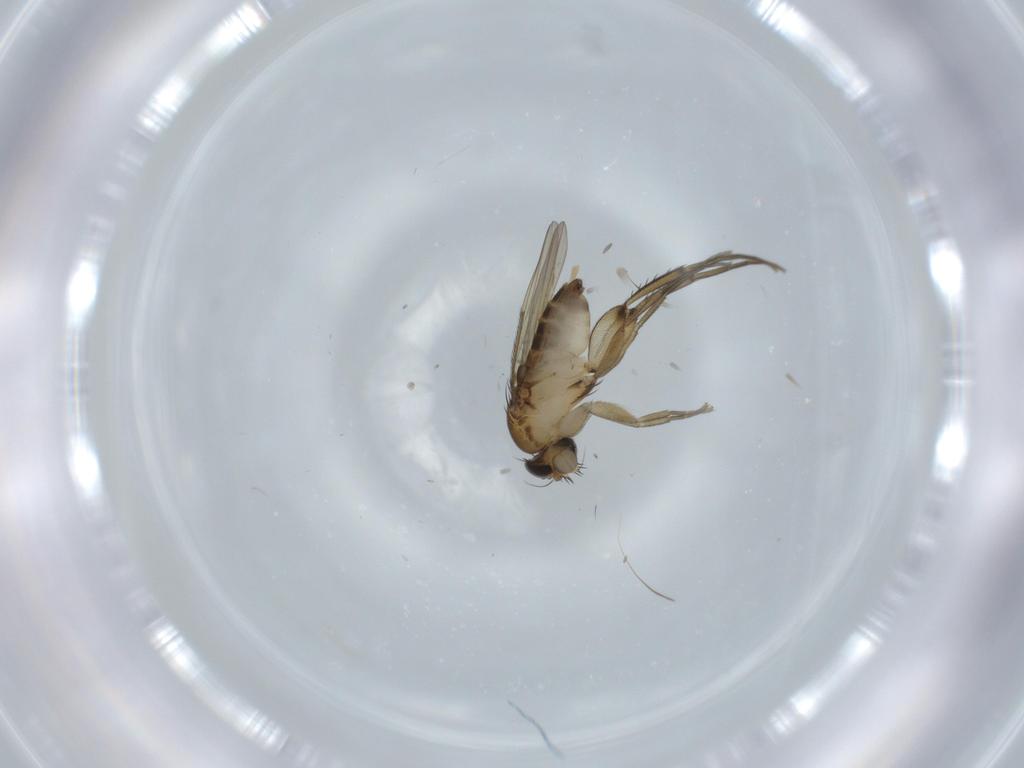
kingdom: Animalia
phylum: Arthropoda
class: Insecta
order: Diptera
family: Phoridae
